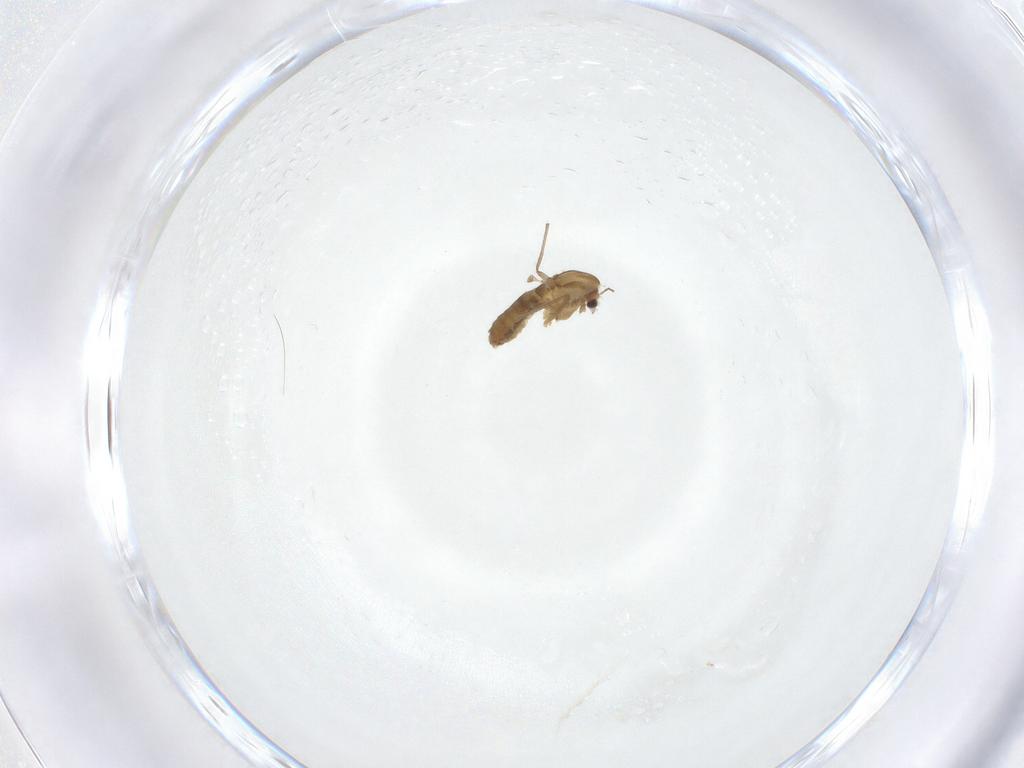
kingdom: Animalia
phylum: Arthropoda
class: Insecta
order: Diptera
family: Chironomidae
